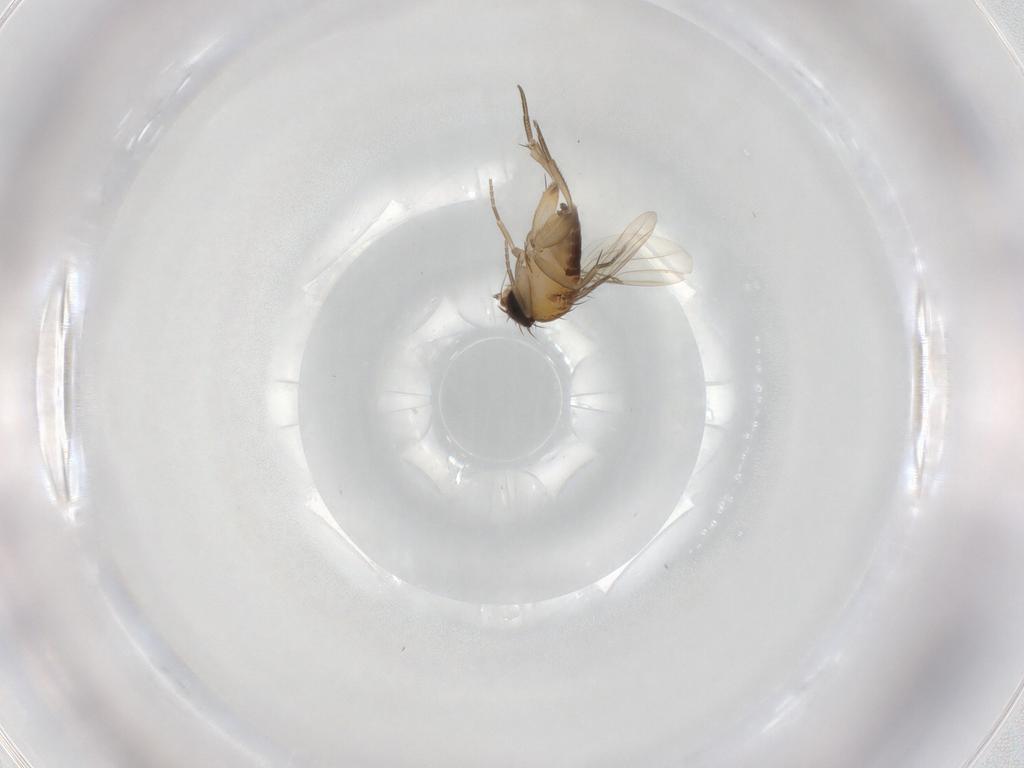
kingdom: Animalia
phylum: Arthropoda
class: Insecta
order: Diptera
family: Phoridae
